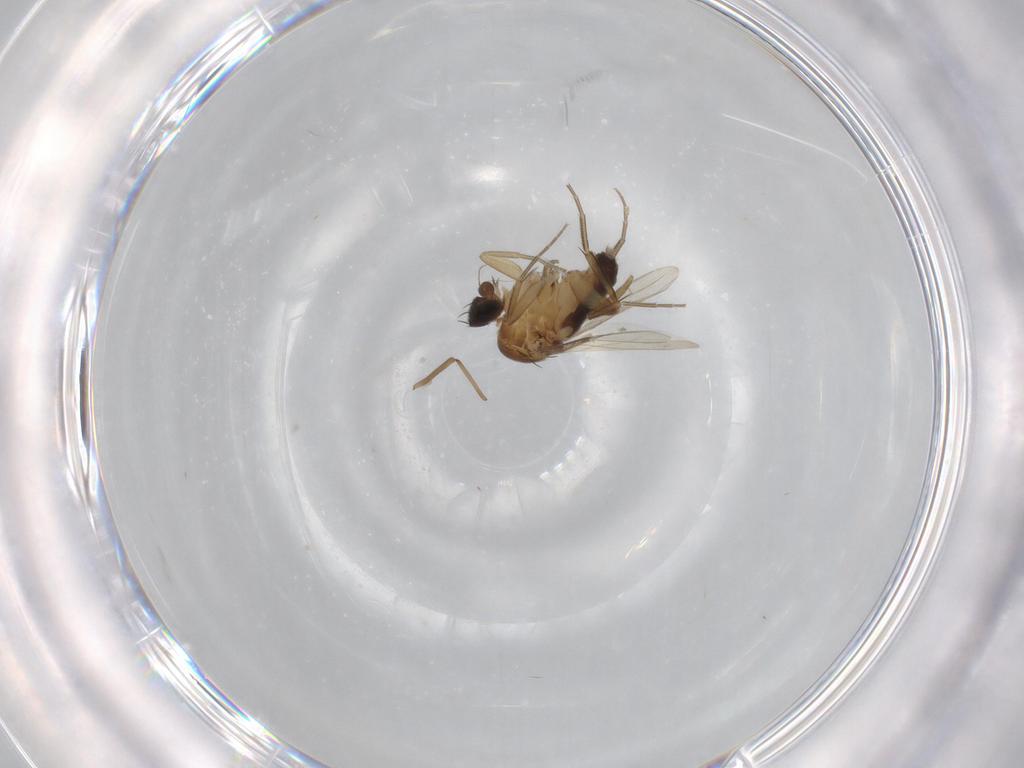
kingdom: Animalia
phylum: Arthropoda
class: Insecta
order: Diptera
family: Phoridae
